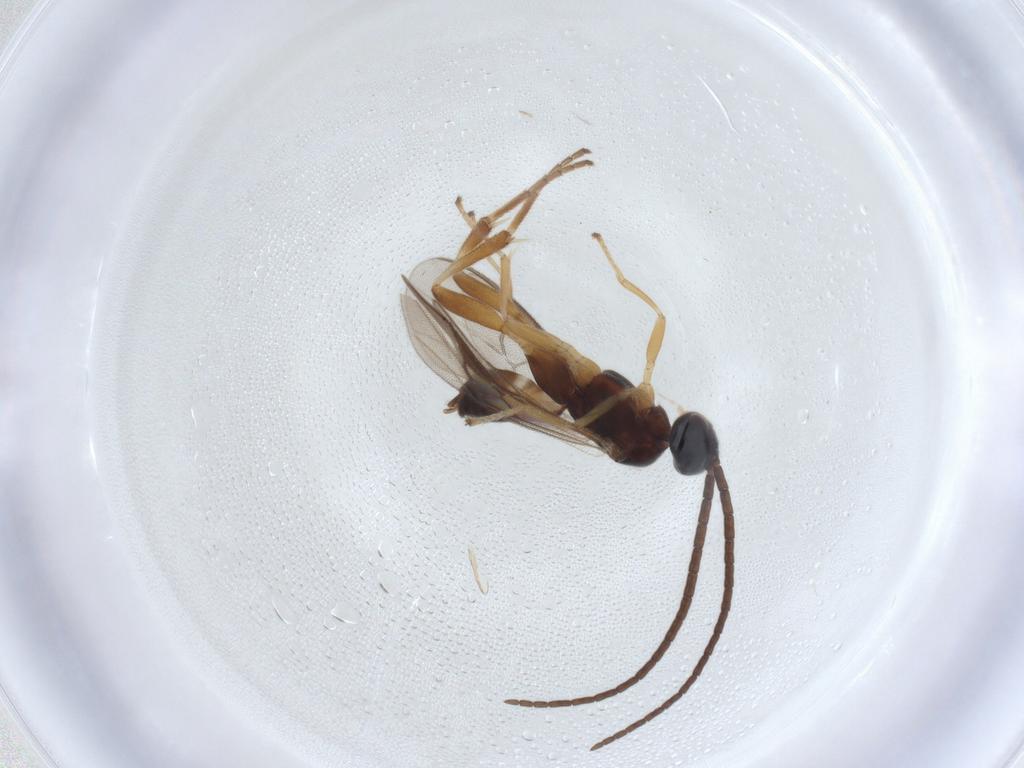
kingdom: Animalia
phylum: Arthropoda
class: Insecta
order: Hymenoptera
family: Braconidae
